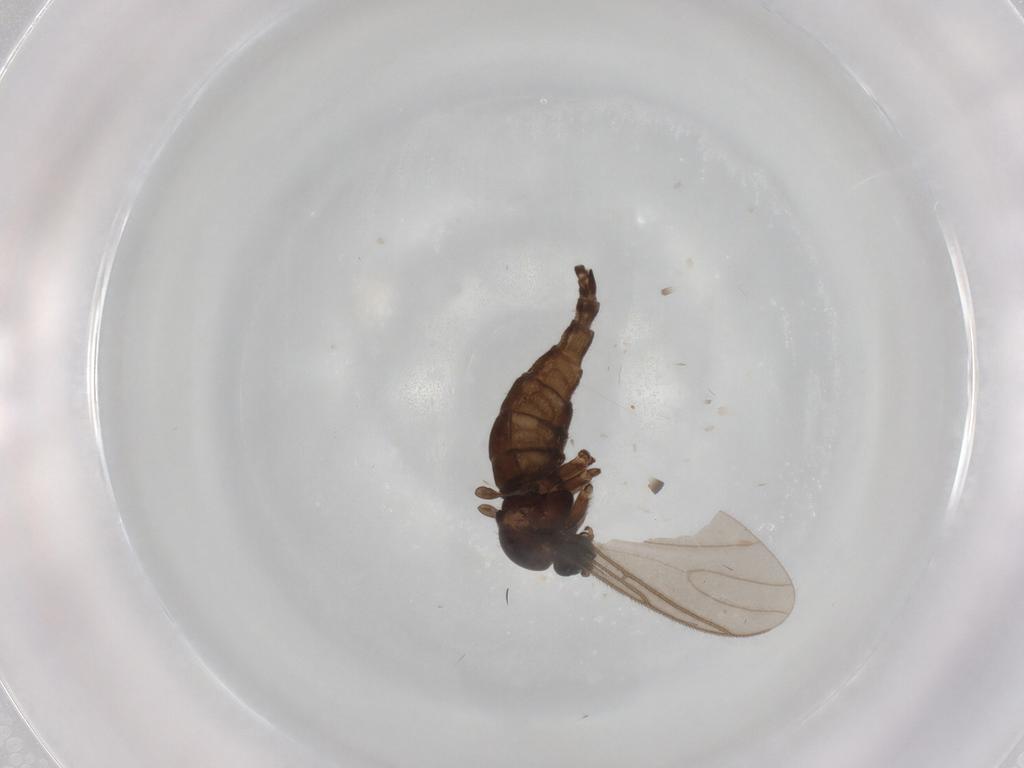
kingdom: Animalia
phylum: Arthropoda
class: Insecta
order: Diptera
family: Sciaridae
